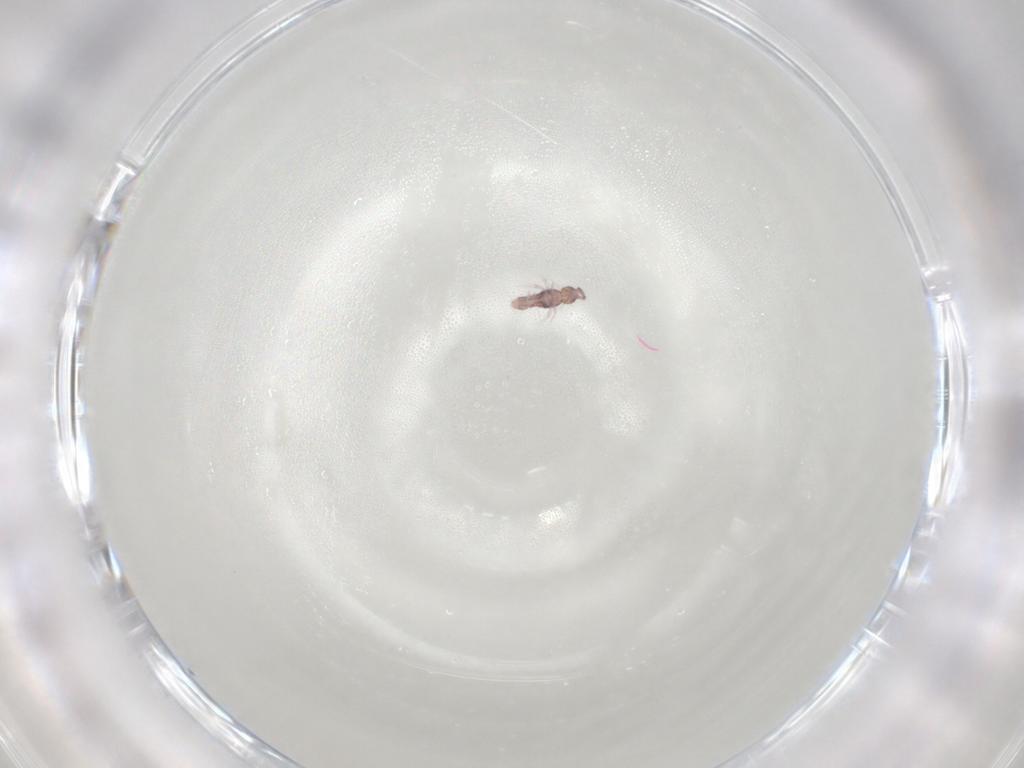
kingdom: Animalia
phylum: Arthropoda
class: Collembola
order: Entomobryomorpha
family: Entomobryidae
